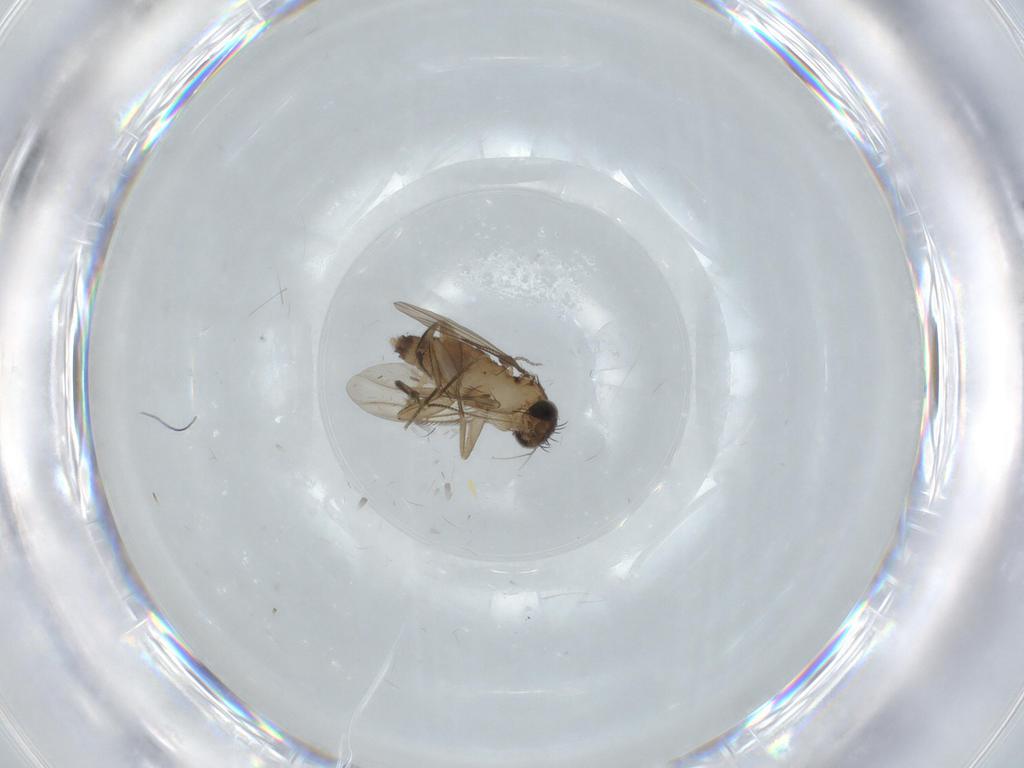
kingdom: Animalia
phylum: Arthropoda
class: Insecta
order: Diptera
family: Phoridae
